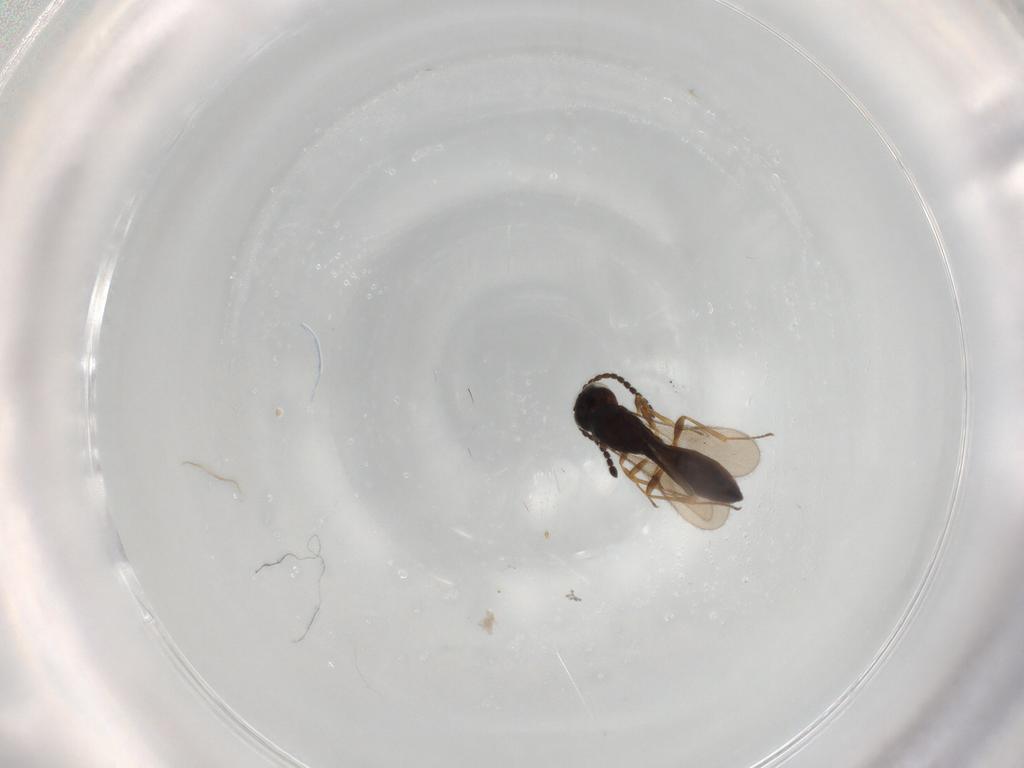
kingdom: Animalia
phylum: Arthropoda
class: Insecta
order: Hymenoptera
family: Scelionidae
